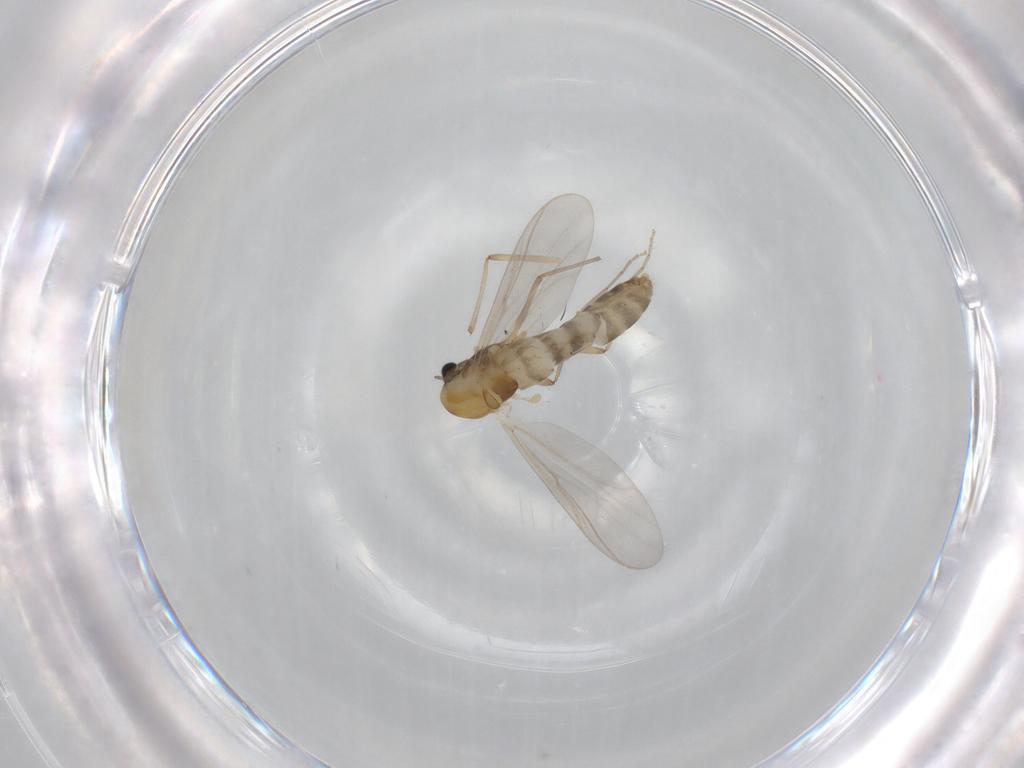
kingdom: Animalia
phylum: Arthropoda
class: Insecta
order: Diptera
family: Chironomidae
